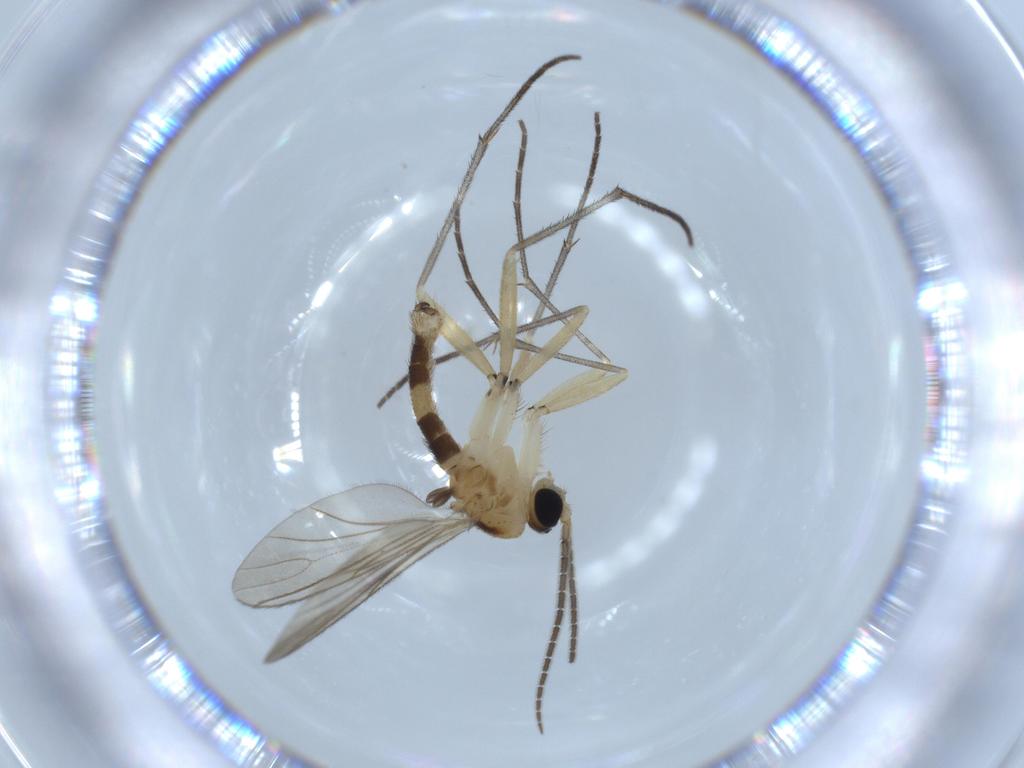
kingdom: Animalia
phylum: Arthropoda
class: Insecta
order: Diptera
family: Sciaridae
